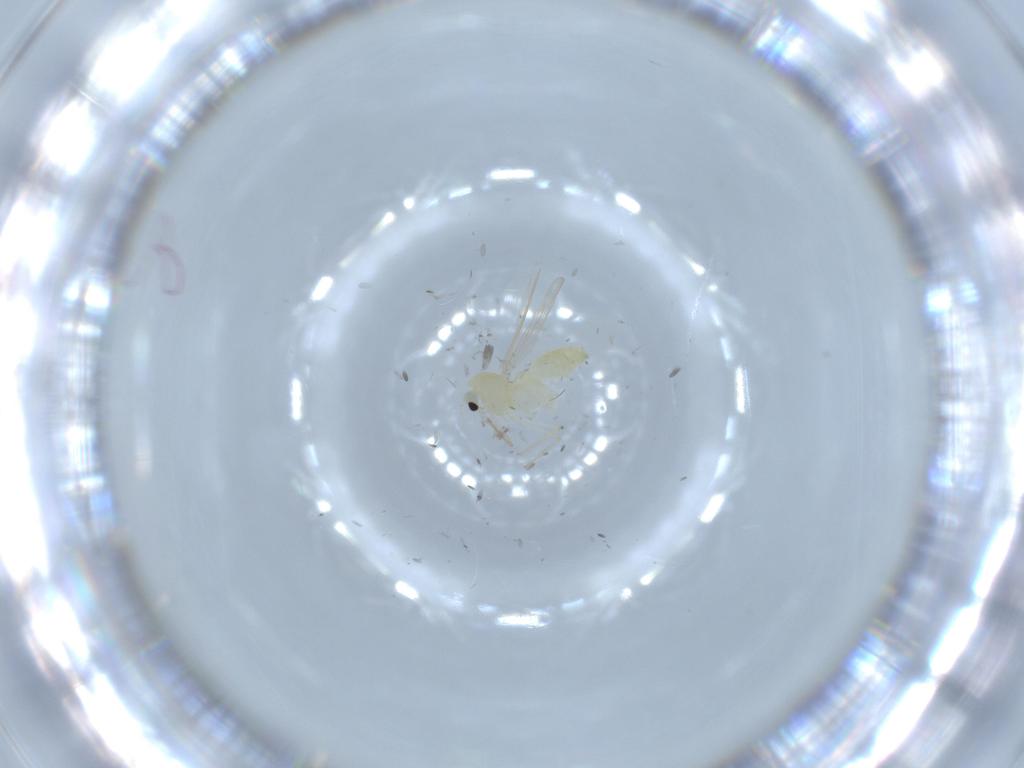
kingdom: Animalia
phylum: Arthropoda
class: Insecta
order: Diptera
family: Chironomidae
